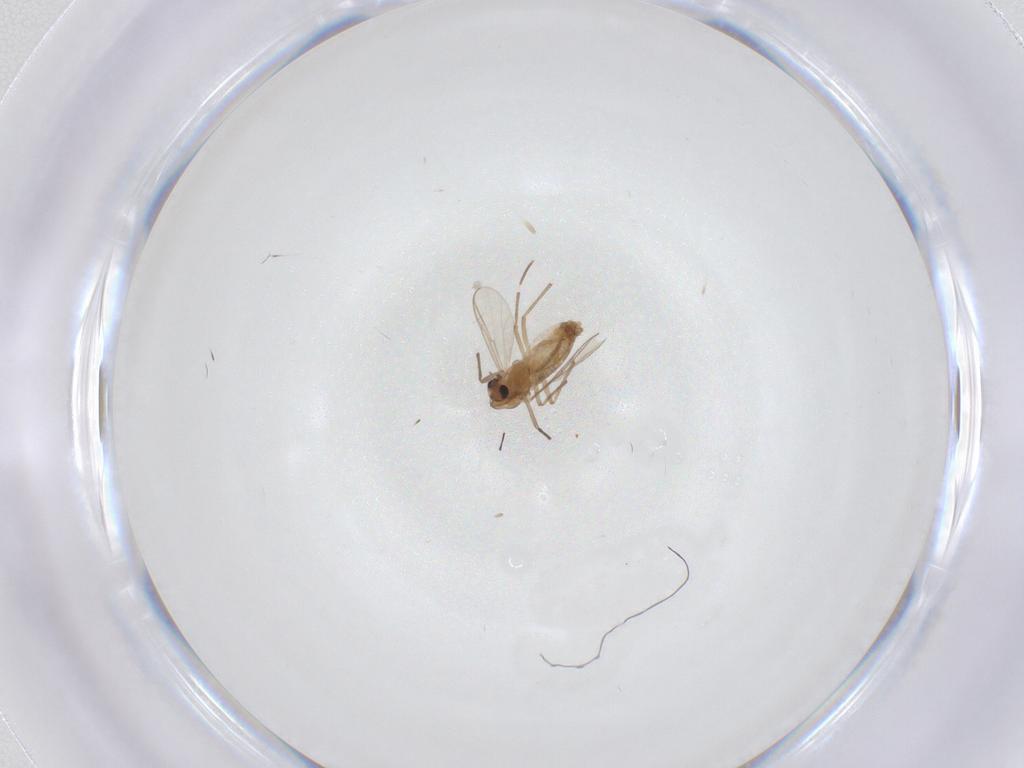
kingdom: Animalia
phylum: Arthropoda
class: Insecta
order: Diptera
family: Chironomidae
